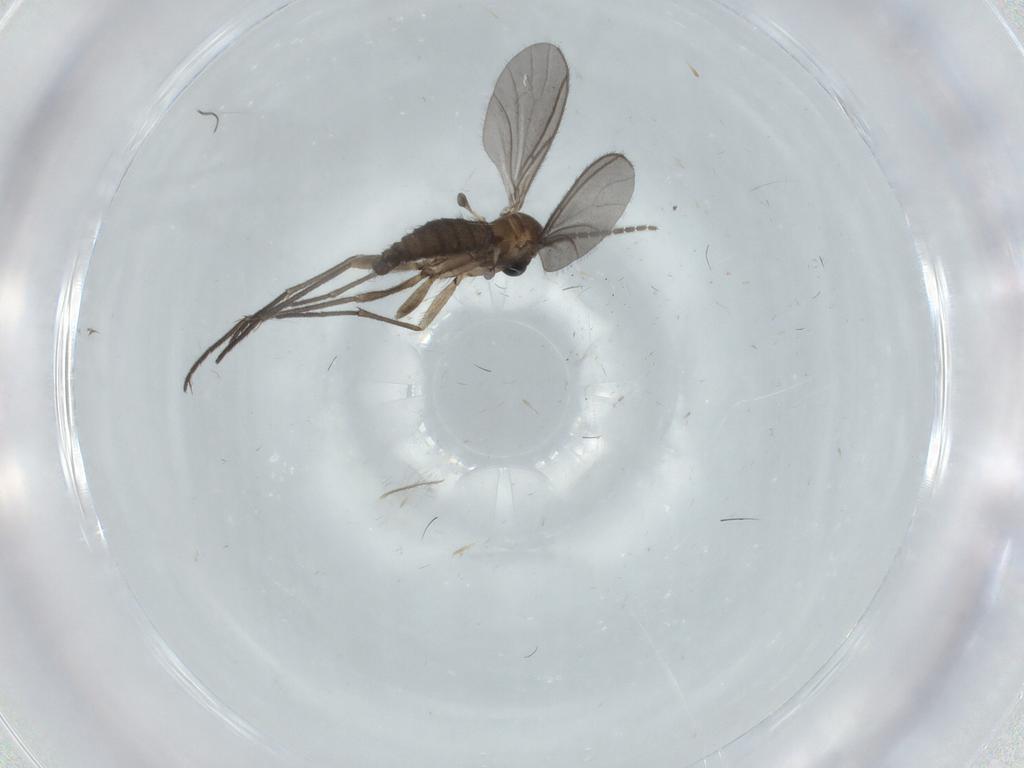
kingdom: Animalia
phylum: Arthropoda
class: Insecta
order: Diptera
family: Sciaridae
